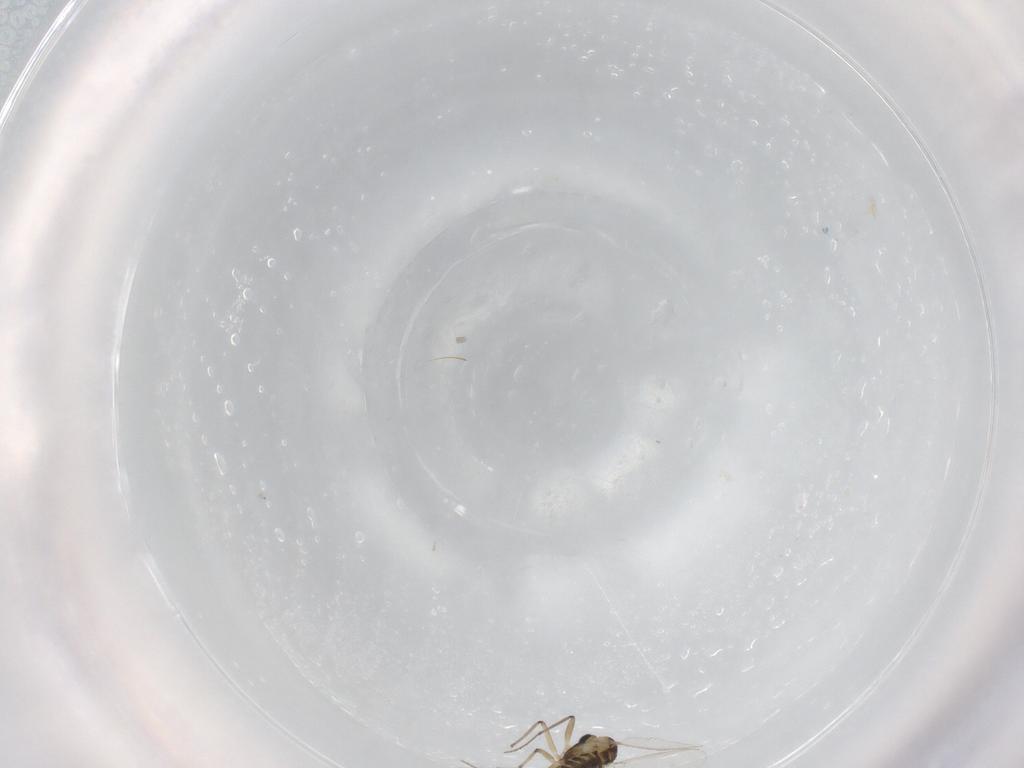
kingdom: Animalia
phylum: Arthropoda
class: Insecta
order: Diptera
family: Chironomidae
